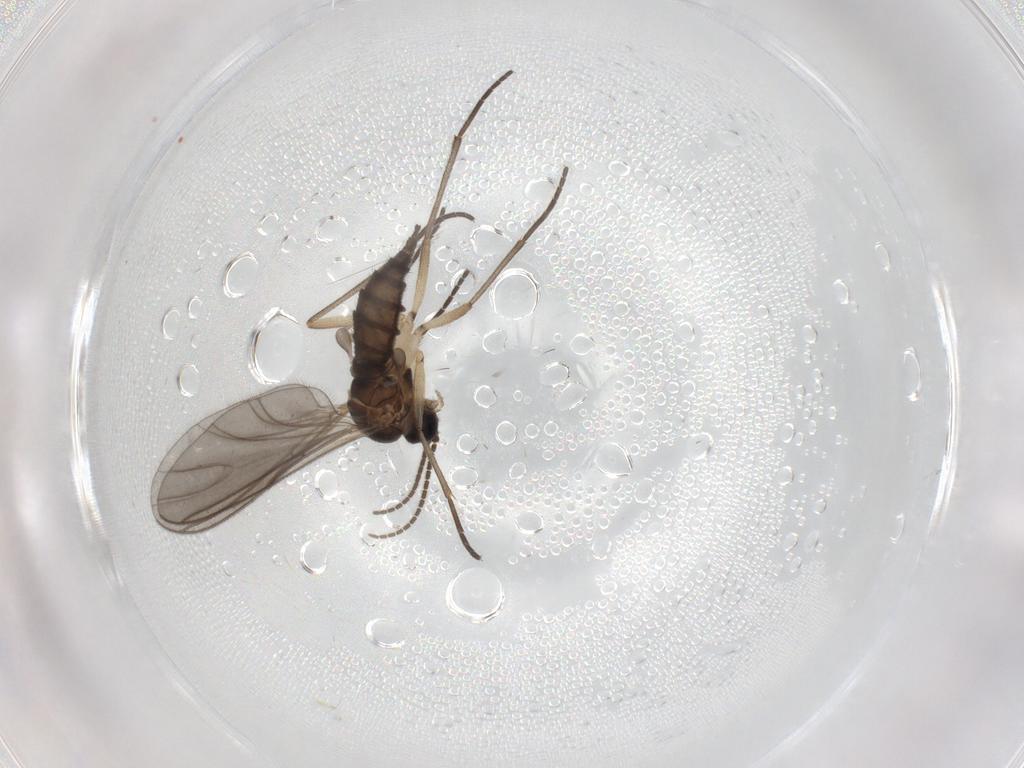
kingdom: Animalia
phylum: Arthropoda
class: Insecta
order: Diptera
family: Sciaridae
